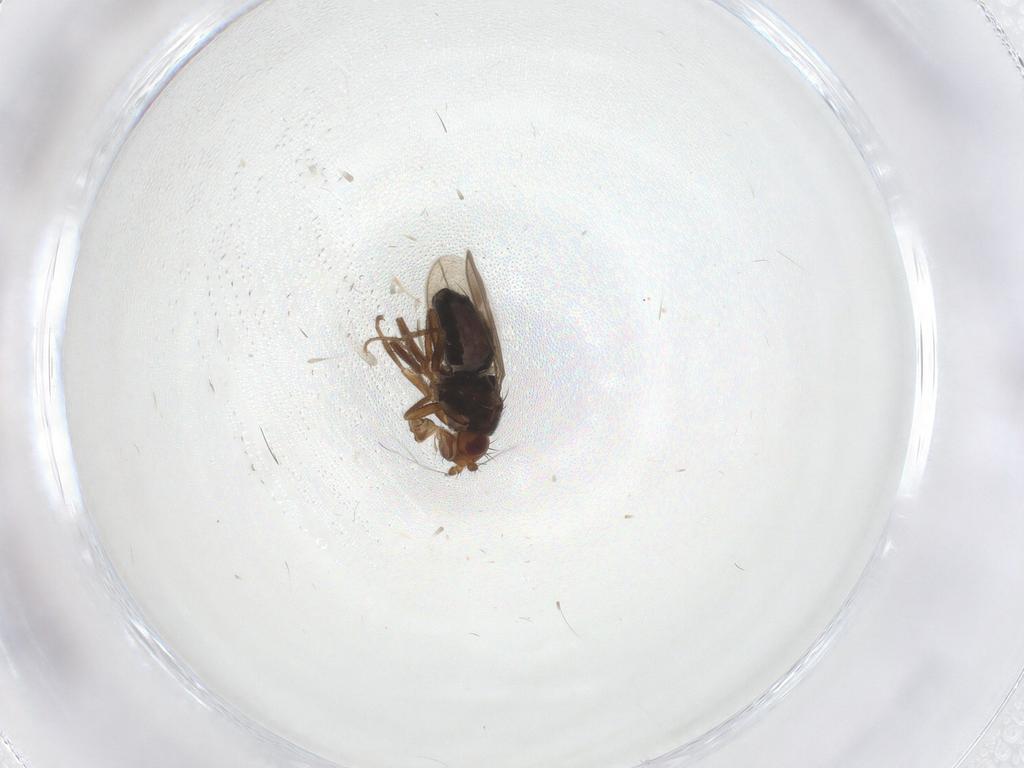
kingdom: Animalia
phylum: Arthropoda
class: Insecta
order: Diptera
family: Sphaeroceridae
